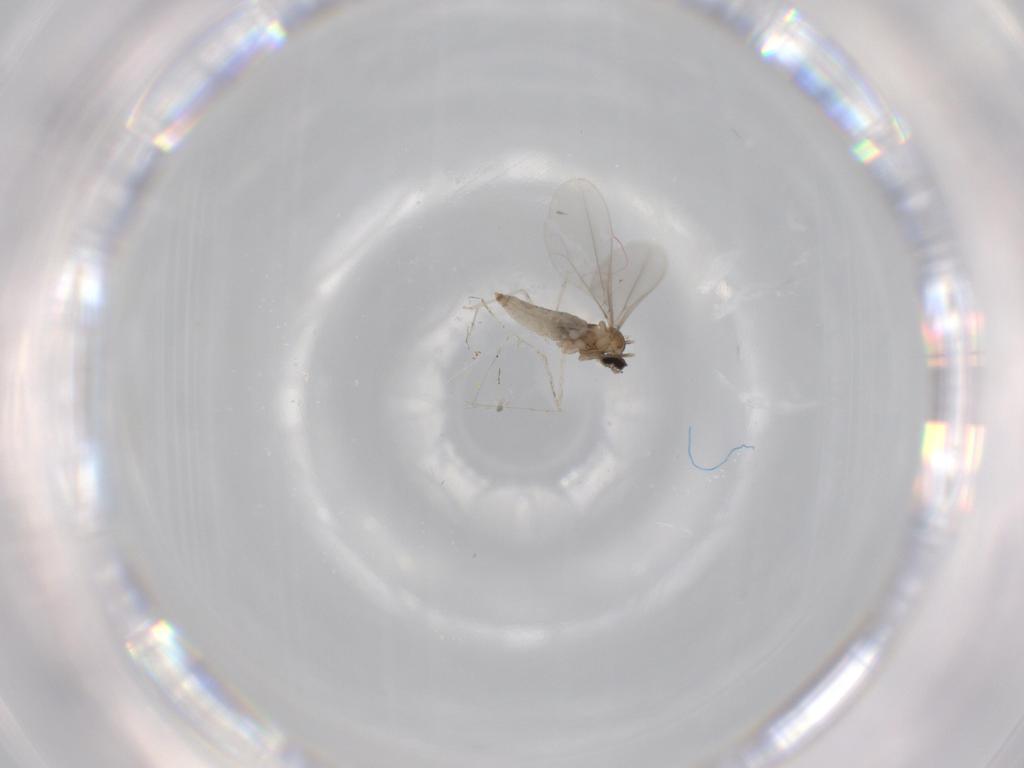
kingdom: Animalia
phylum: Arthropoda
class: Insecta
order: Diptera
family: Cecidomyiidae
